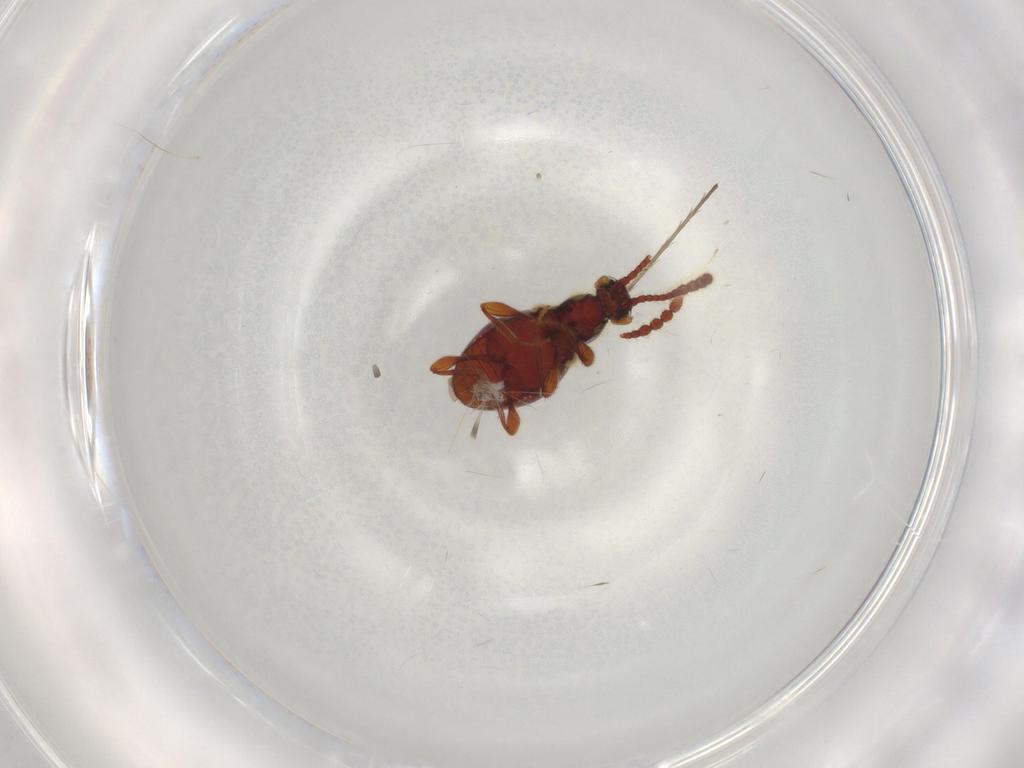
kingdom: Animalia
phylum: Arthropoda
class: Insecta
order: Coleoptera
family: Staphylinidae
